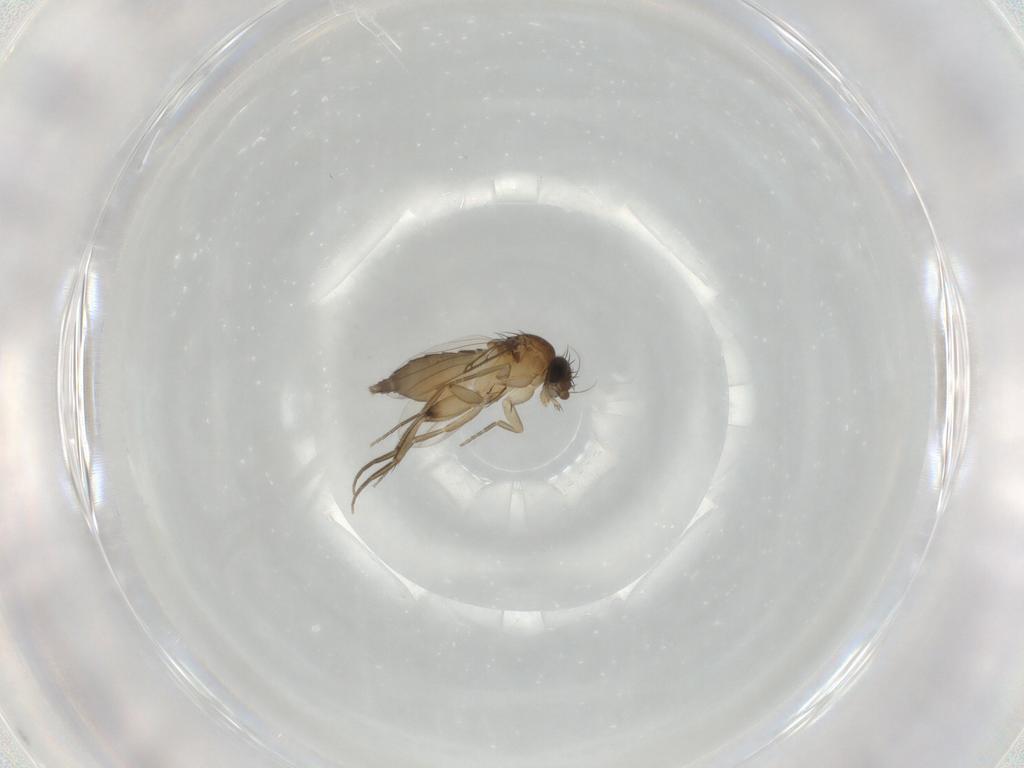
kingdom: Animalia
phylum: Arthropoda
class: Insecta
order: Diptera
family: Phoridae
